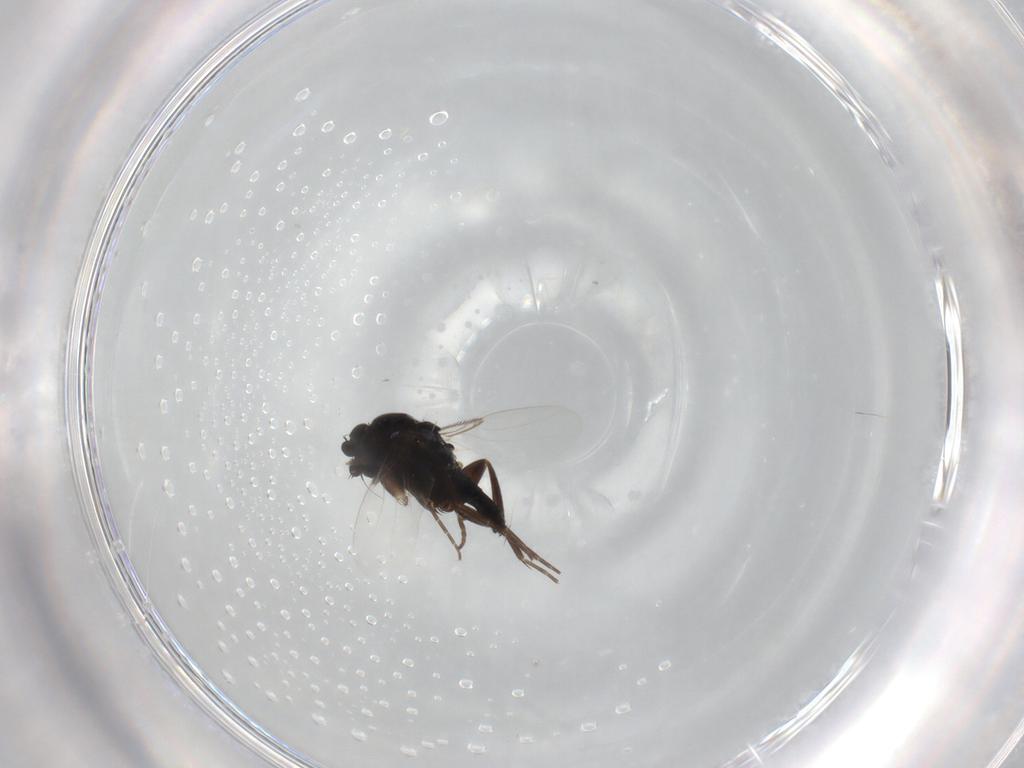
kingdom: Animalia
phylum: Arthropoda
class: Insecta
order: Diptera
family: Phoridae
